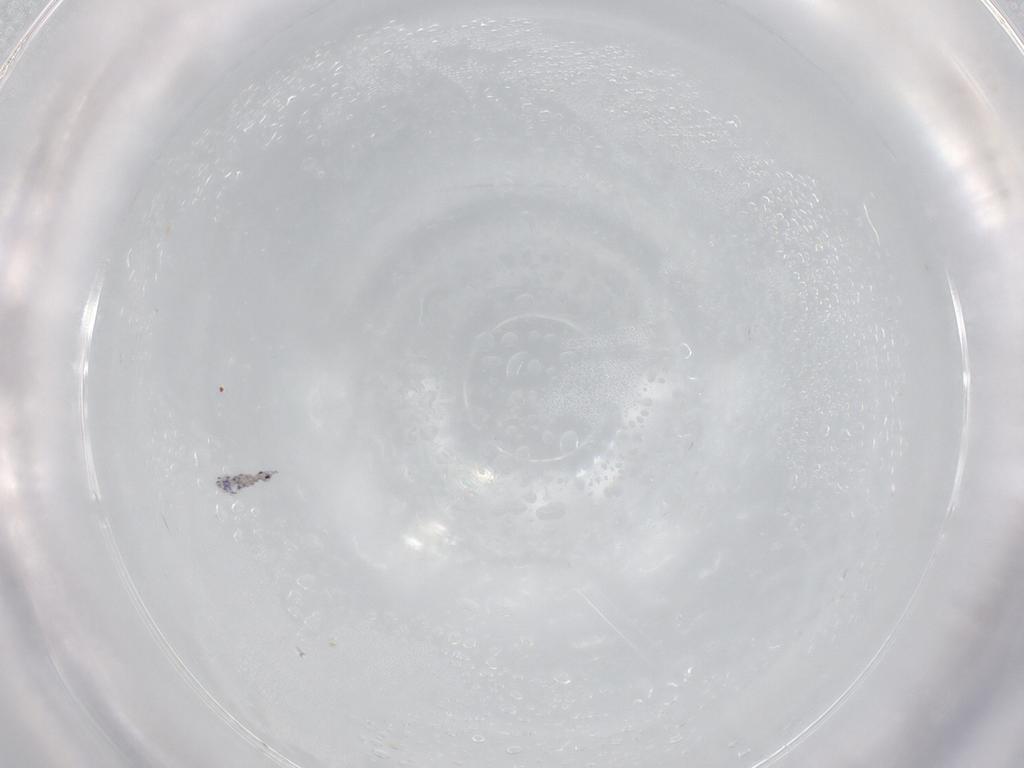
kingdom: Animalia
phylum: Arthropoda
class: Collembola
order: Entomobryomorpha
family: Entomobryidae
